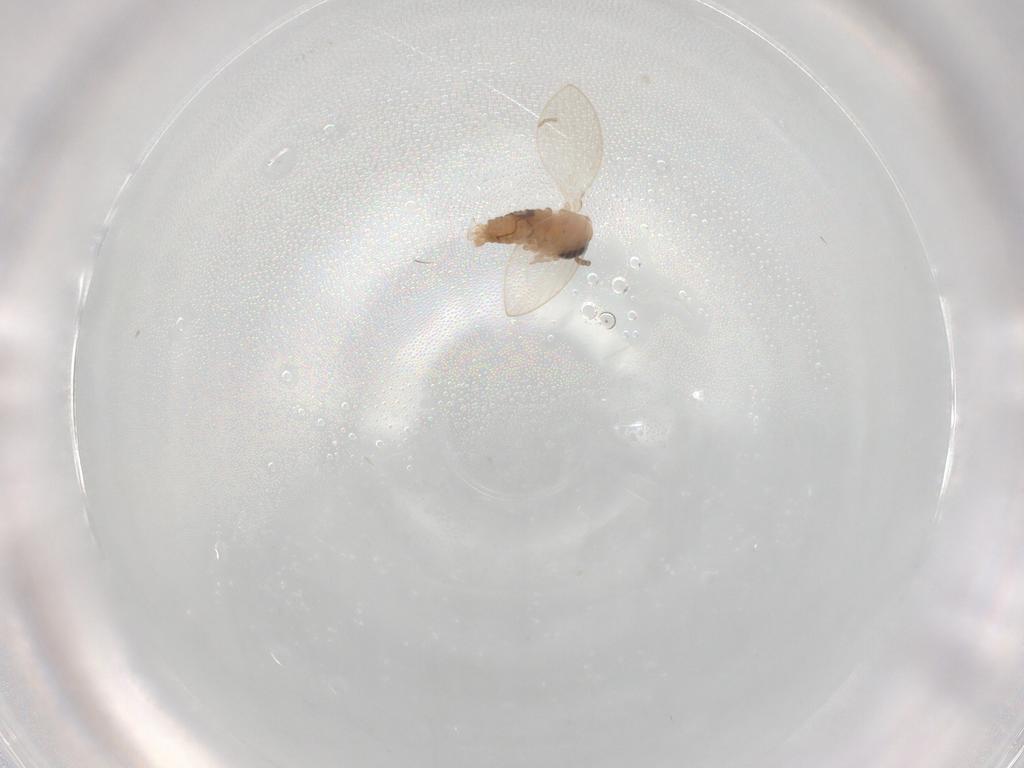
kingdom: Animalia
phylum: Arthropoda
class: Insecta
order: Diptera
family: Psychodidae
